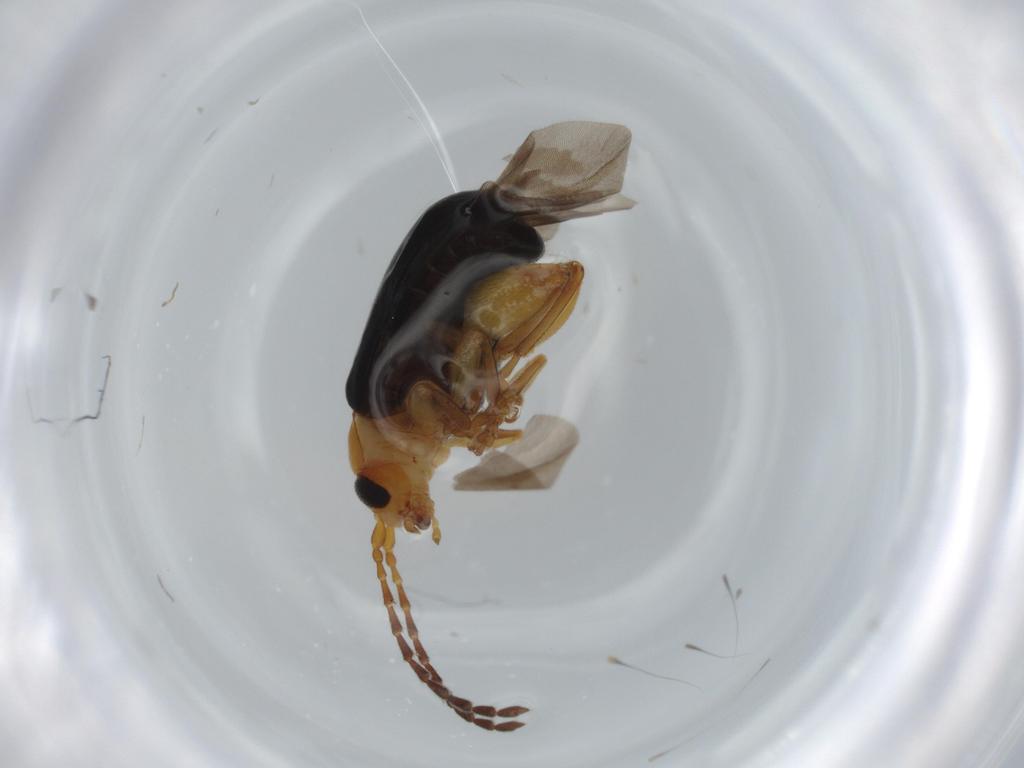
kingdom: Animalia
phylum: Arthropoda
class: Insecta
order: Coleoptera
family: Chrysomelidae
